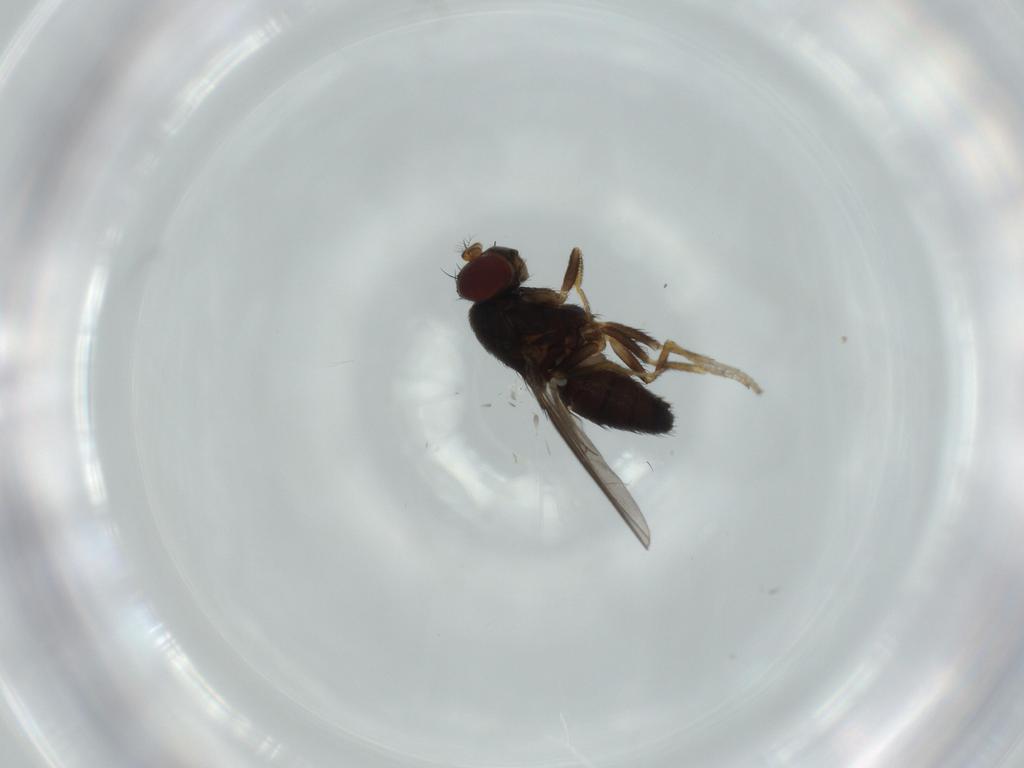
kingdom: Animalia
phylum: Arthropoda
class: Insecta
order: Diptera
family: Ephydridae
